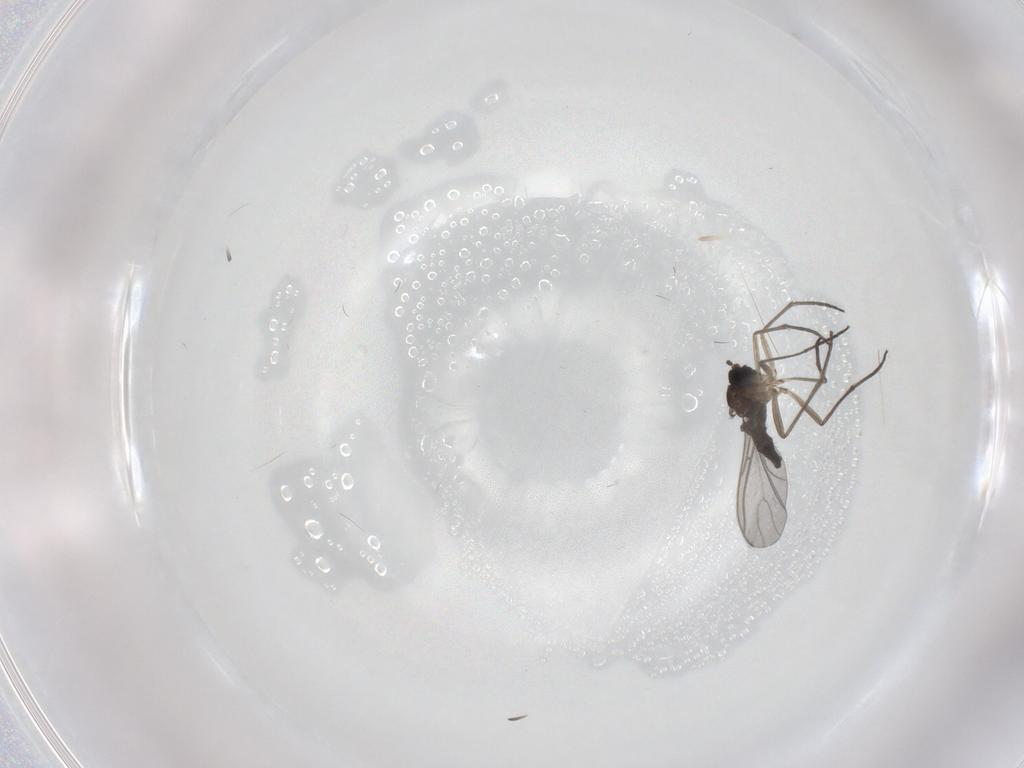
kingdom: Animalia
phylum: Arthropoda
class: Insecta
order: Diptera
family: Sciaridae
